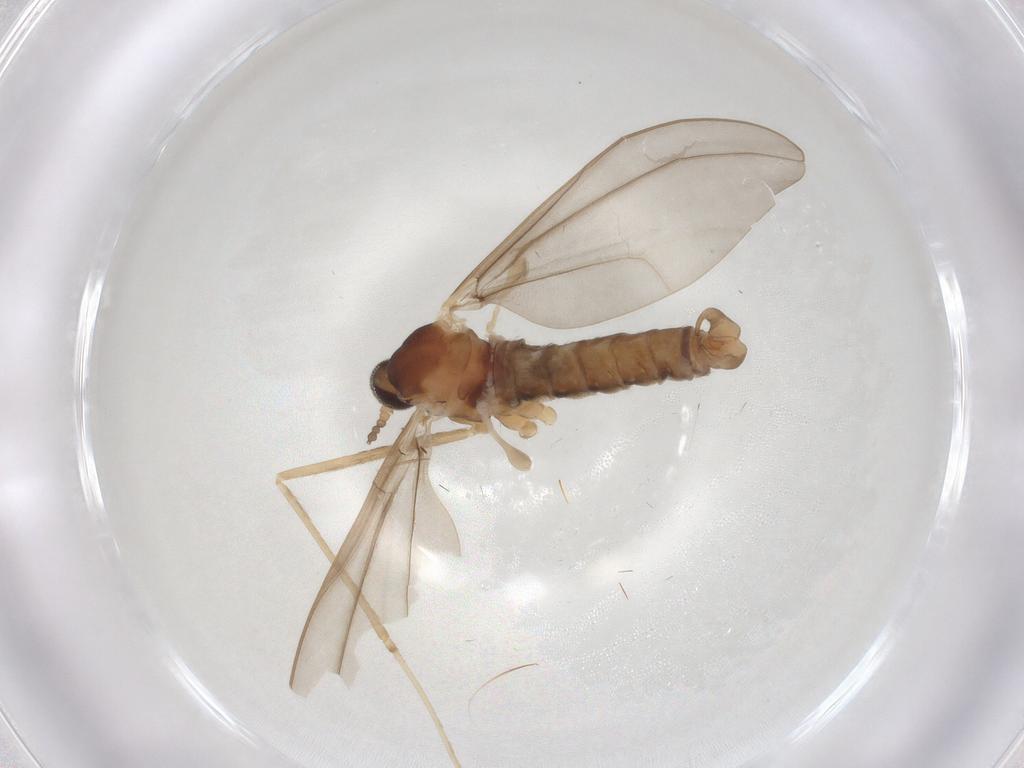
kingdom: Animalia
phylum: Arthropoda
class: Insecta
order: Diptera
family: Cecidomyiidae
